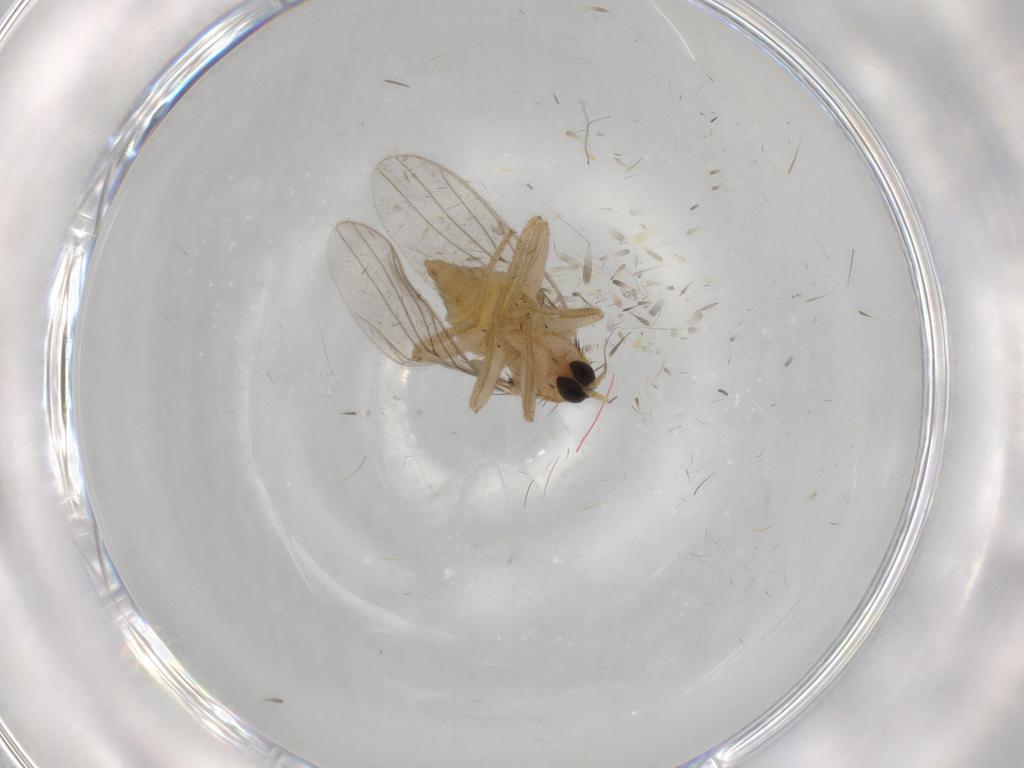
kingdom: Animalia
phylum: Arthropoda
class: Insecta
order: Diptera
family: Hybotidae
